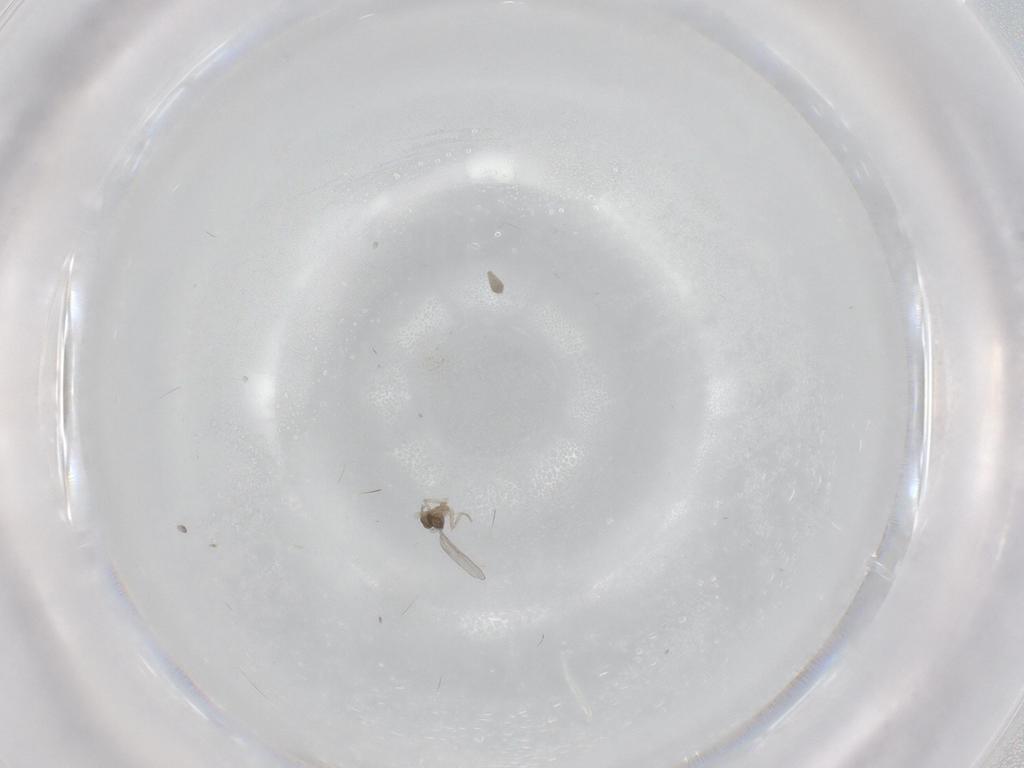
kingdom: Animalia
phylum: Arthropoda
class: Insecta
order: Diptera
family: Cecidomyiidae
